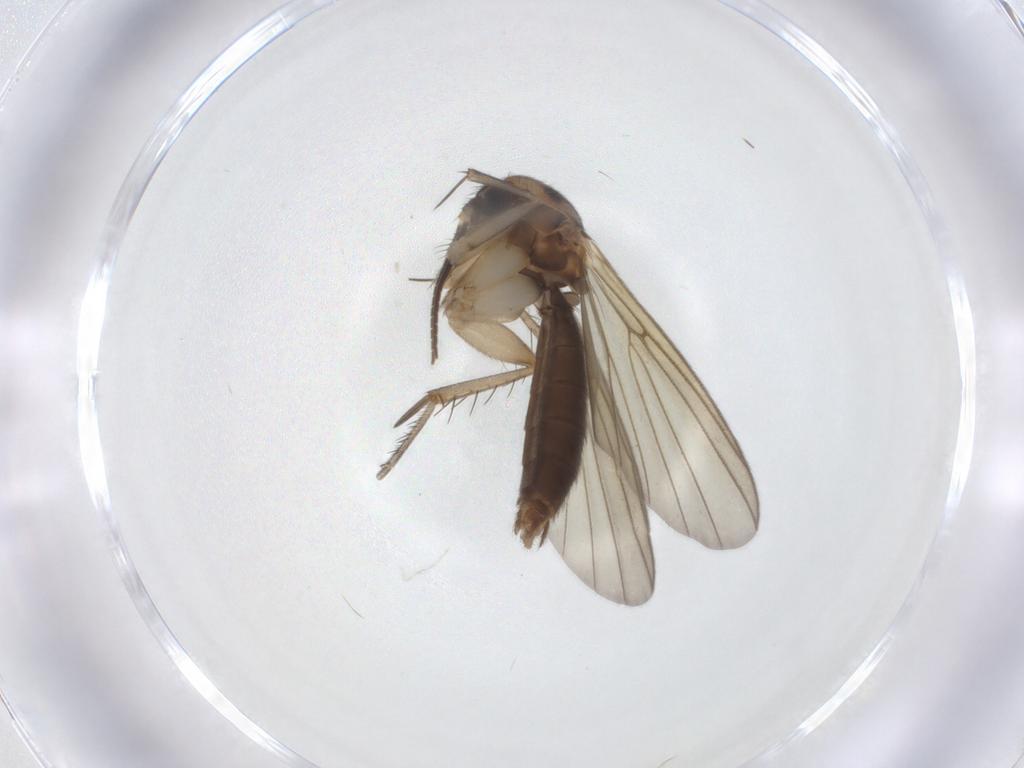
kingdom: Animalia
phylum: Arthropoda
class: Insecta
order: Diptera
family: Mycetophilidae
